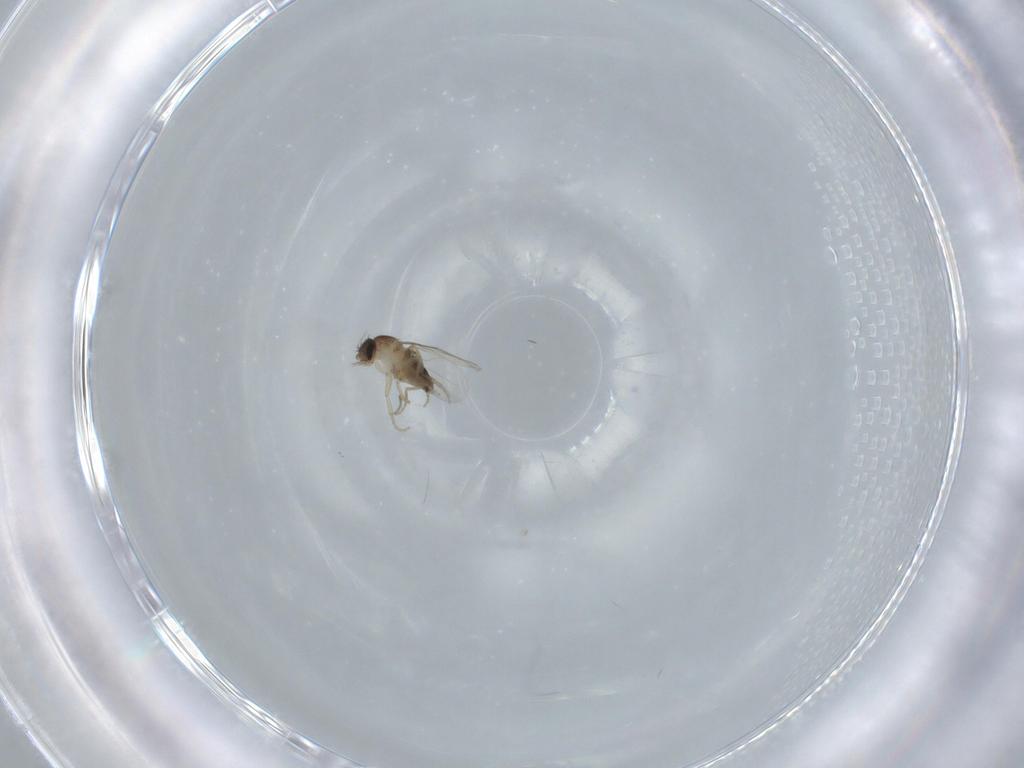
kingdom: Animalia
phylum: Arthropoda
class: Insecta
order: Diptera
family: Phoridae
